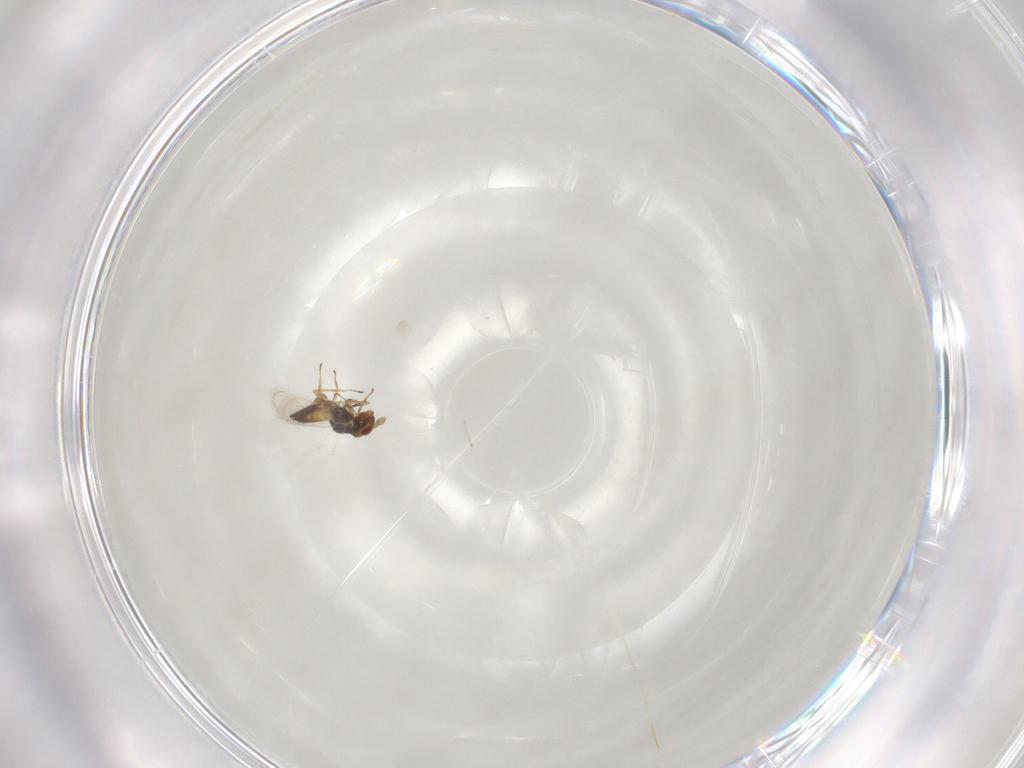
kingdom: Animalia
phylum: Arthropoda
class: Insecta
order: Hymenoptera
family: Eulophidae
